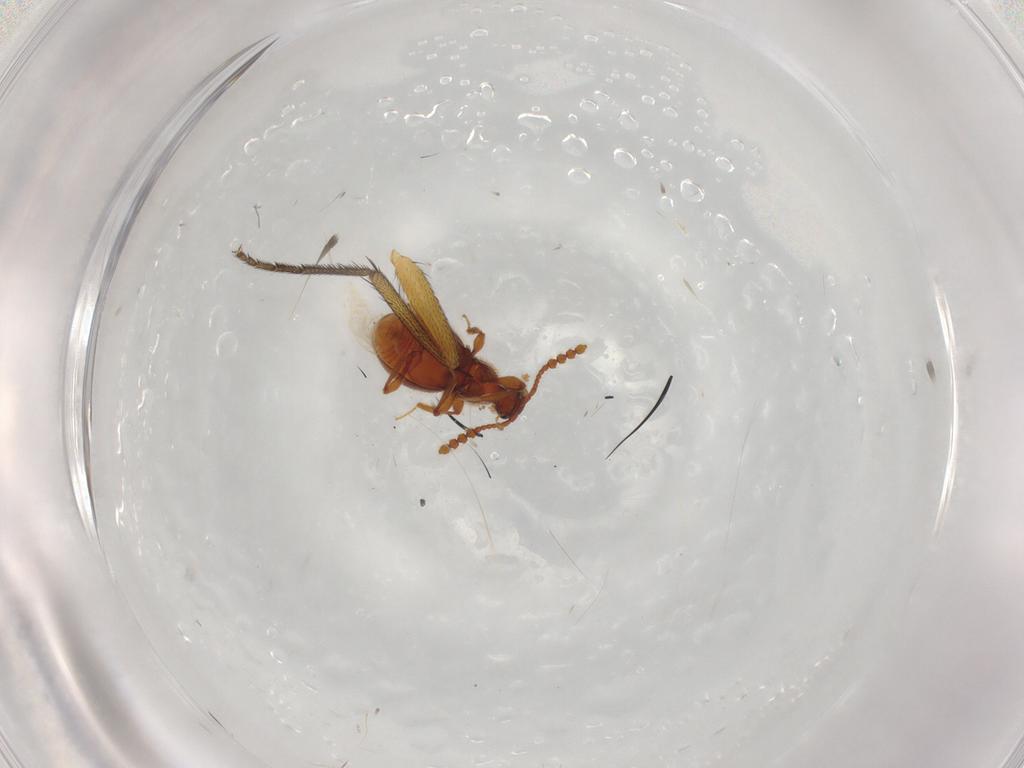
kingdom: Animalia
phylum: Arthropoda
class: Insecta
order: Coleoptera
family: Staphylinidae
